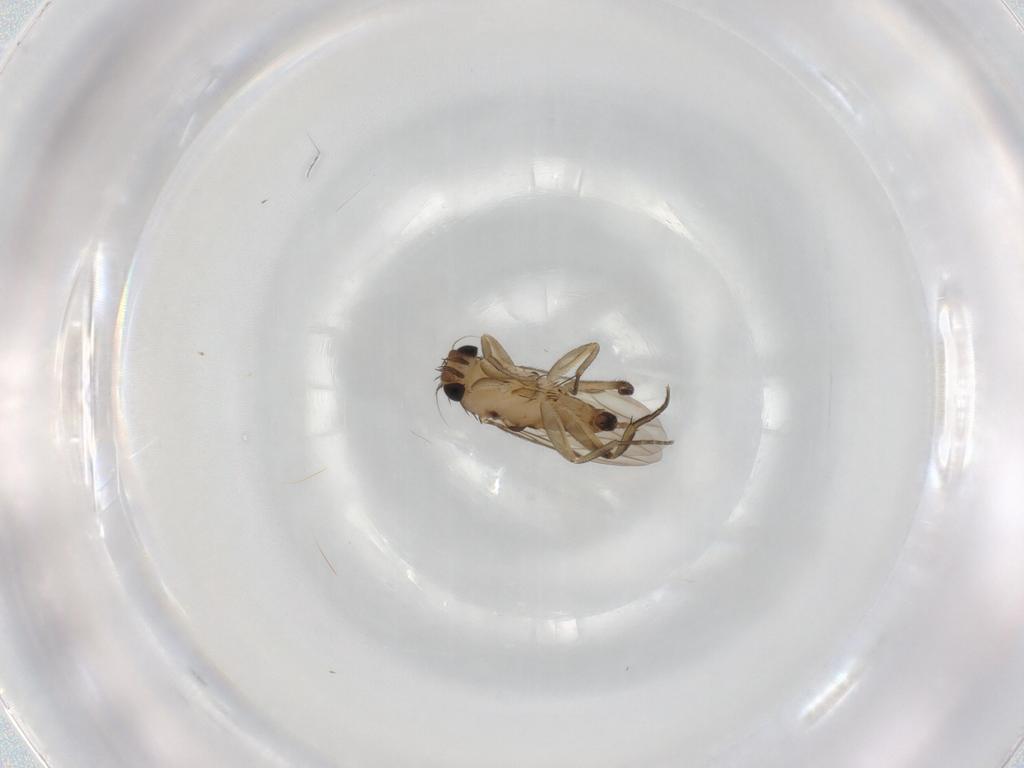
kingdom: Animalia
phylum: Arthropoda
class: Insecta
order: Diptera
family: Phoridae
